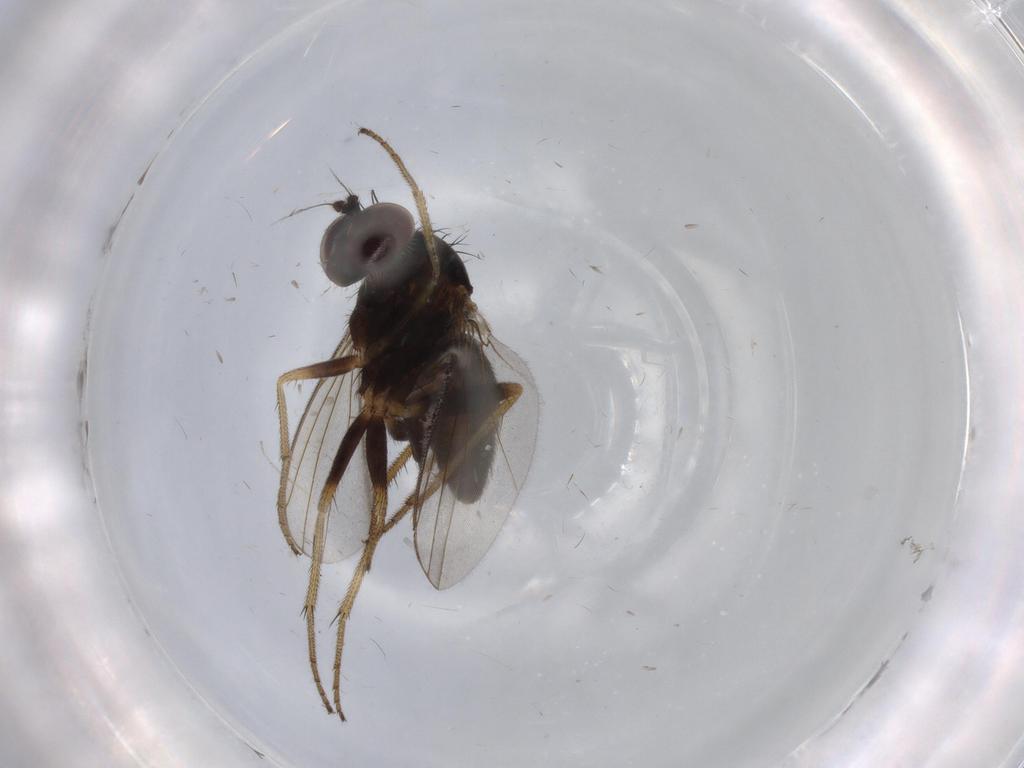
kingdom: Animalia
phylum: Arthropoda
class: Insecta
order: Diptera
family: Dolichopodidae
